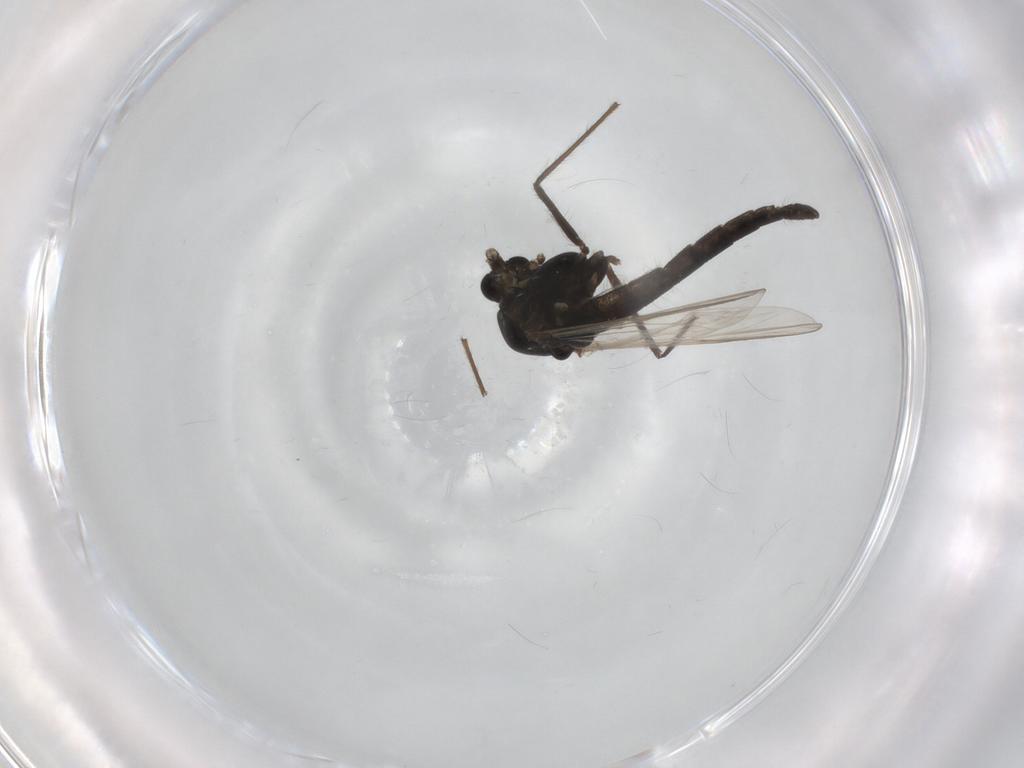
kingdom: Animalia
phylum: Arthropoda
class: Insecta
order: Diptera
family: Chironomidae
